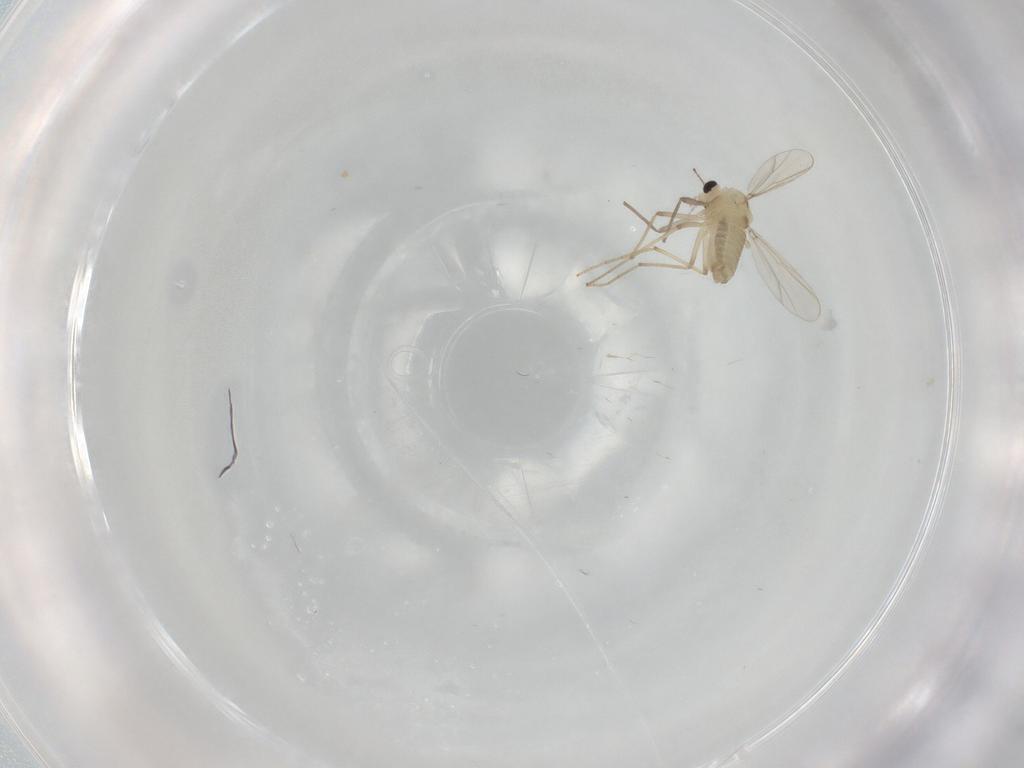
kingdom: Animalia
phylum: Arthropoda
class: Insecta
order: Diptera
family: Chironomidae
